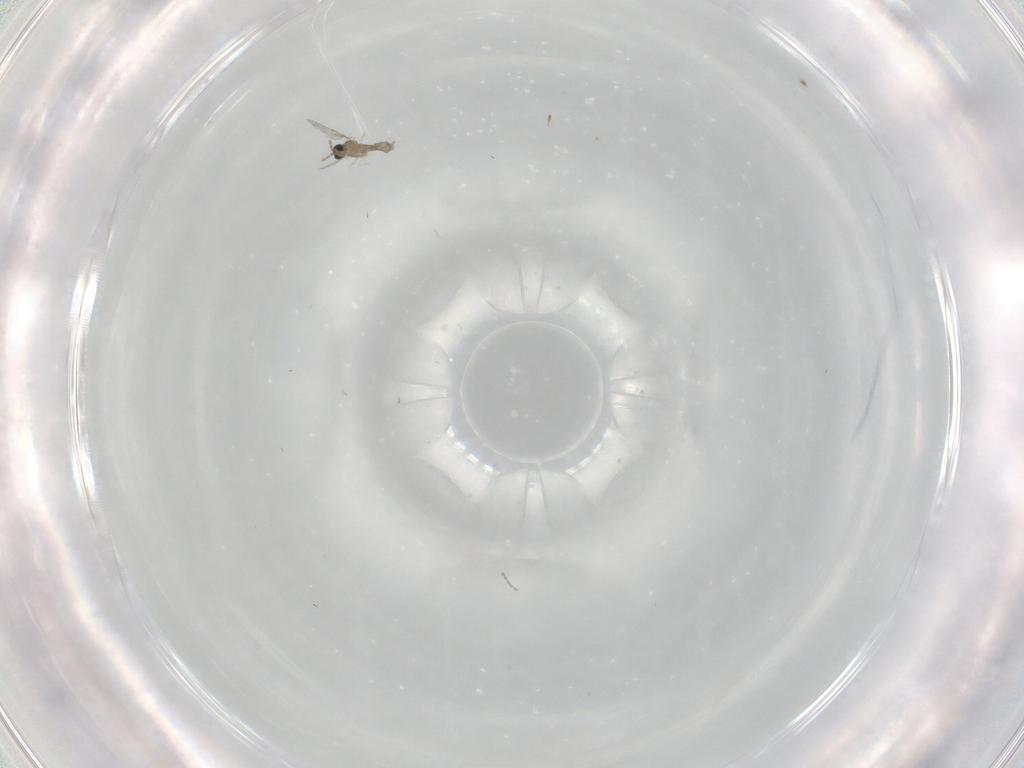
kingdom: Animalia
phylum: Arthropoda
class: Insecta
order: Diptera
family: Cecidomyiidae
